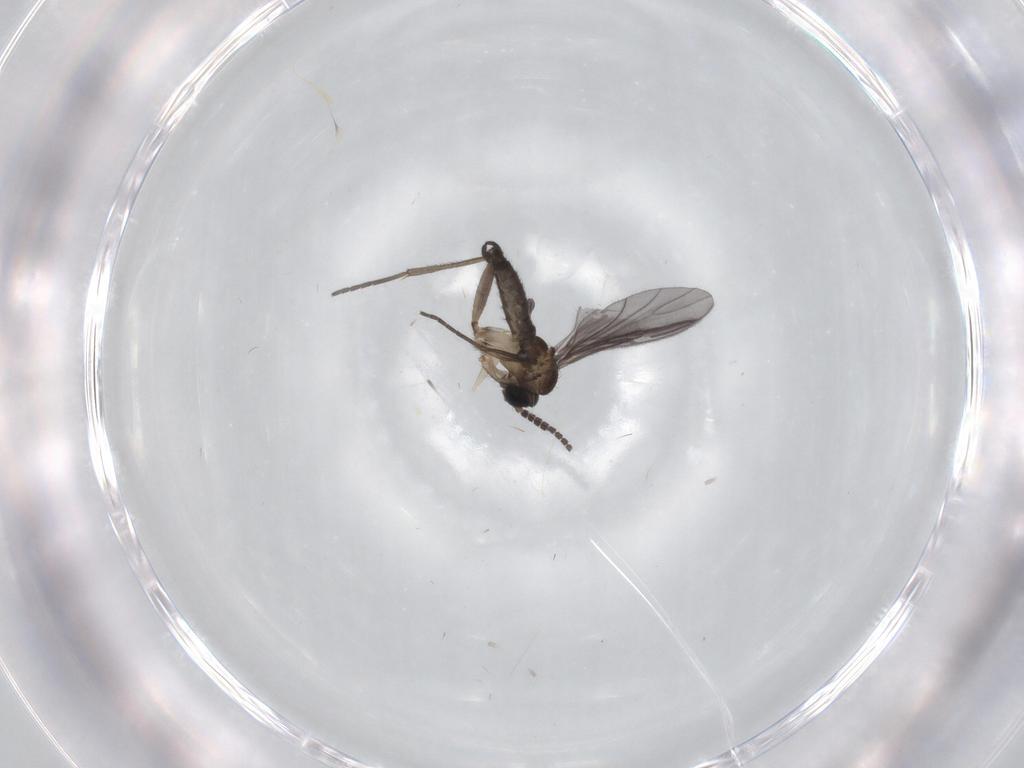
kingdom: Animalia
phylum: Arthropoda
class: Insecta
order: Diptera
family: Sciaridae
